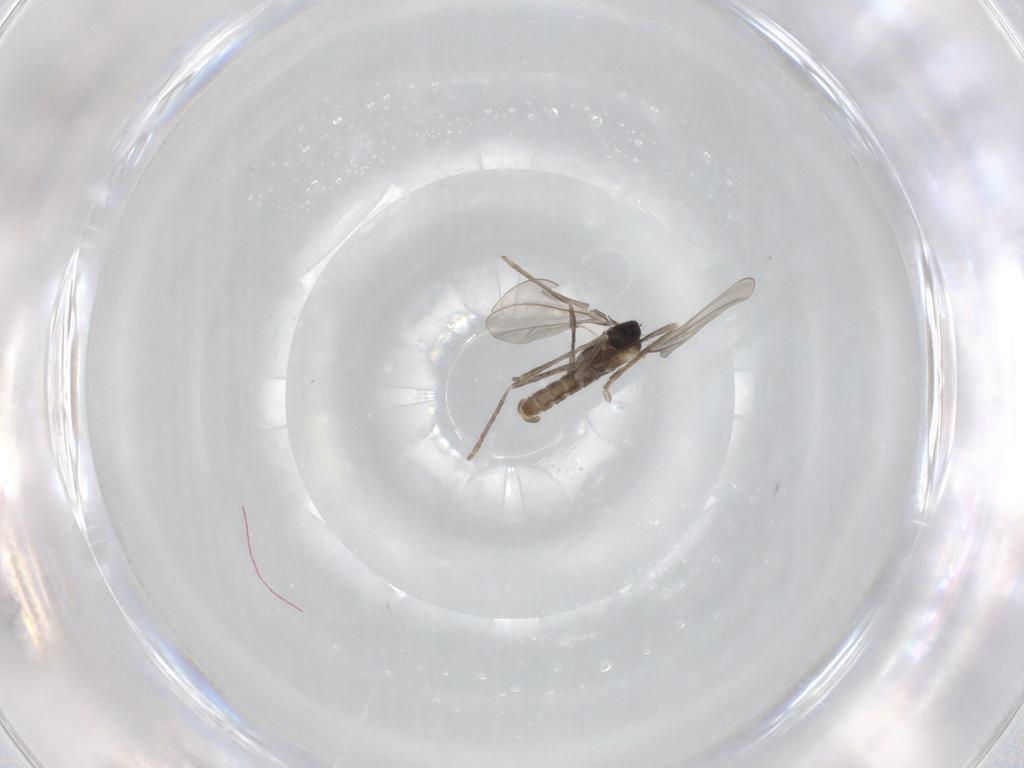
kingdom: Animalia
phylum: Arthropoda
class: Insecta
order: Diptera
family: Cecidomyiidae
